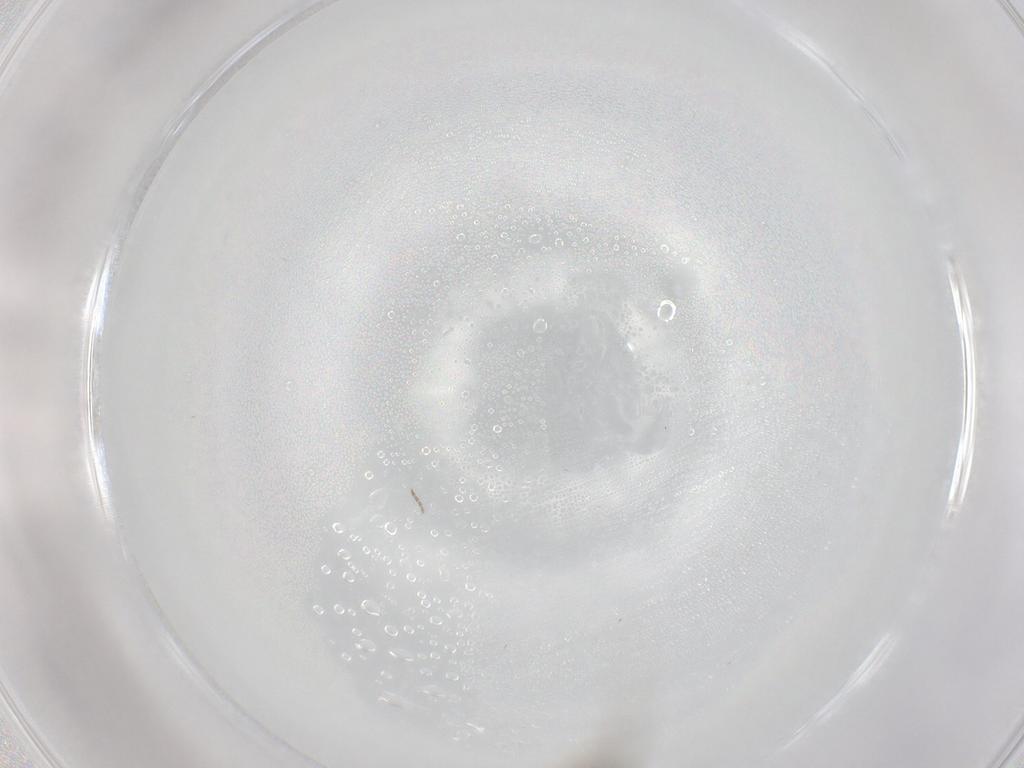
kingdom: Animalia
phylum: Arthropoda
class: Insecta
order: Diptera
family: Cecidomyiidae
